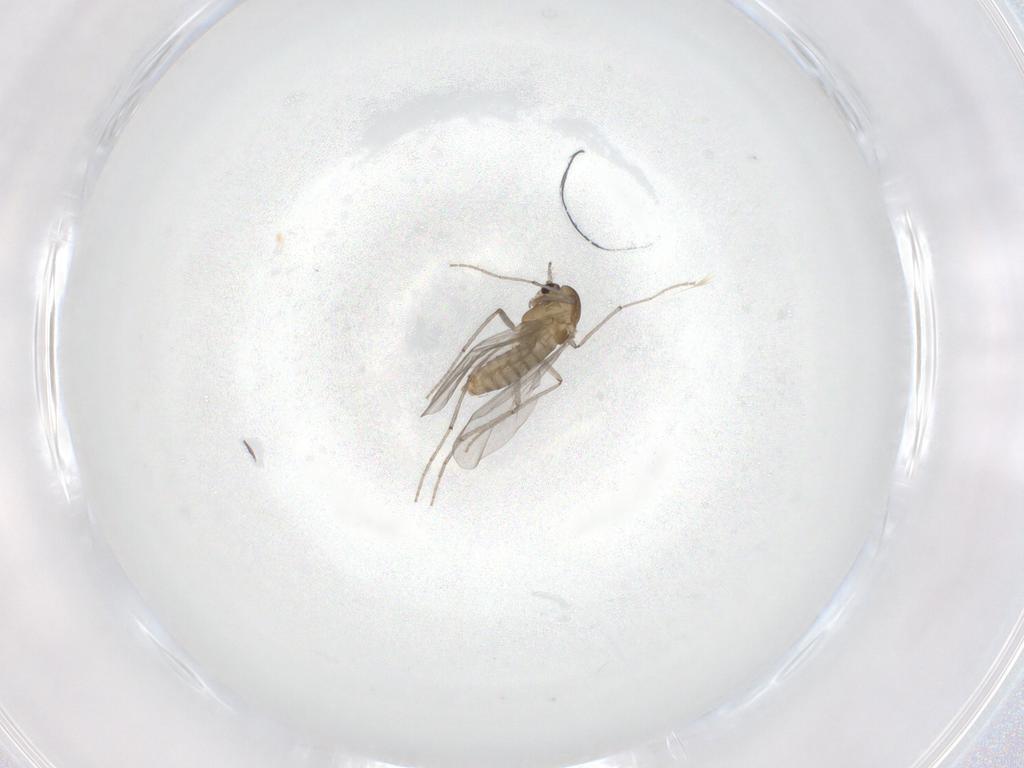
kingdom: Animalia
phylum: Arthropoda
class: Insecta
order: Diptera
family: Chironomidae
